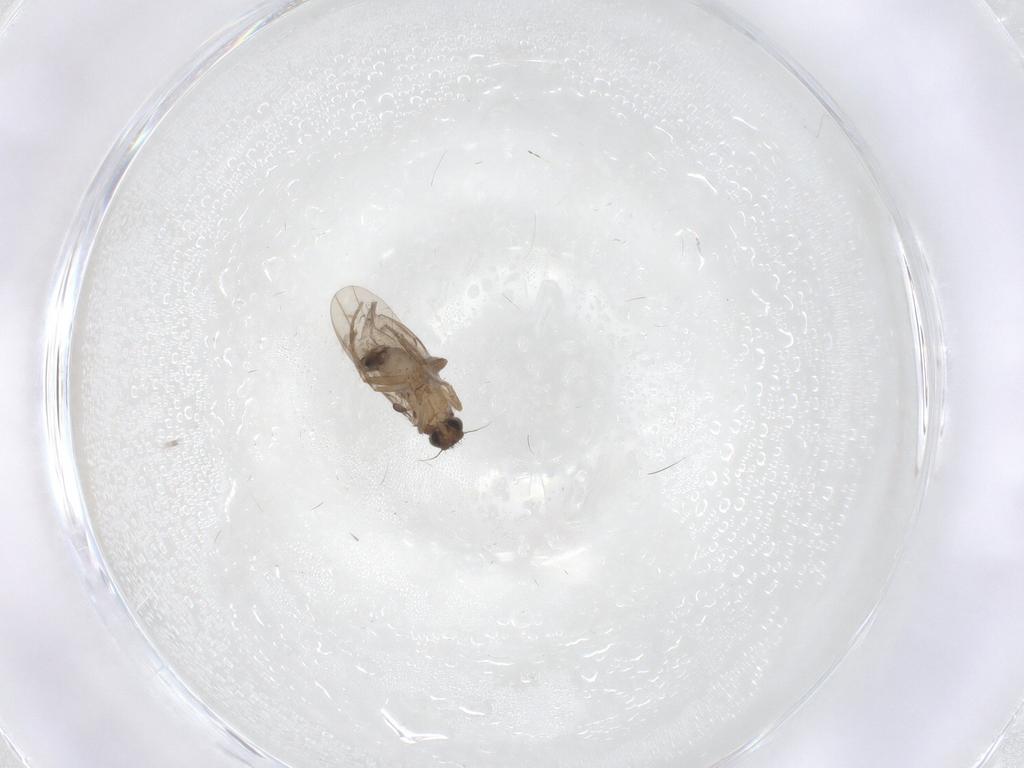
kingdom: Animalia
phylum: Arthropoda
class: Insecta
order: Diptera
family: Phoridae
